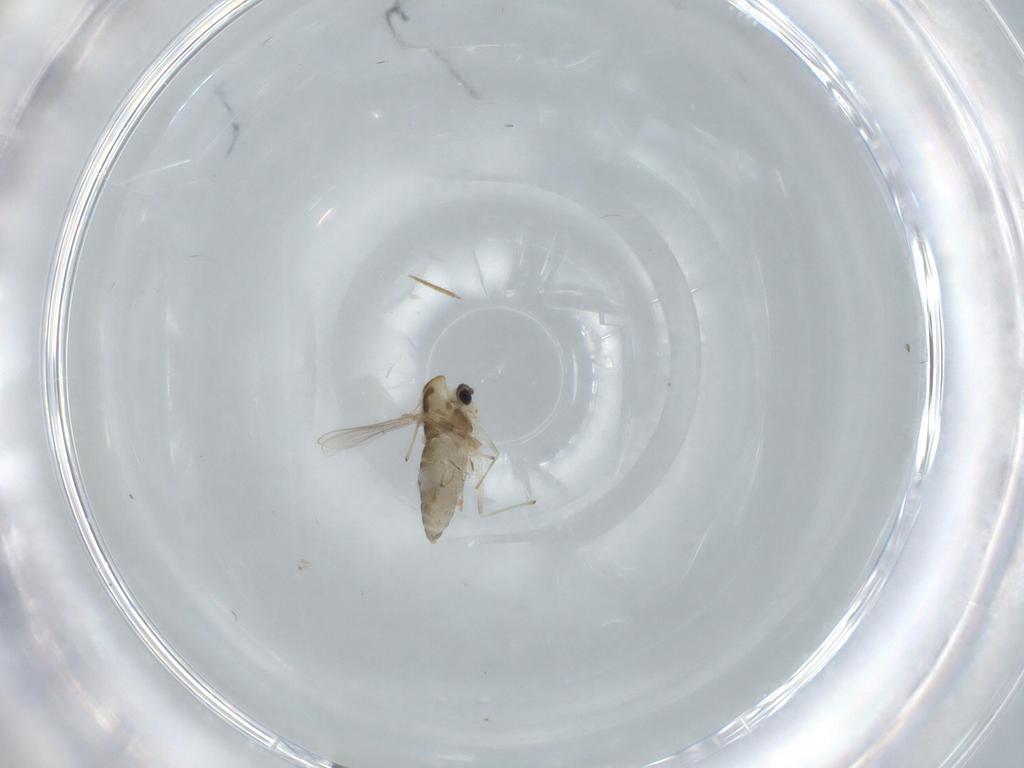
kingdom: Animalia
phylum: Arthropoda
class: Insecta
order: Diptera
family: Chironomidae
